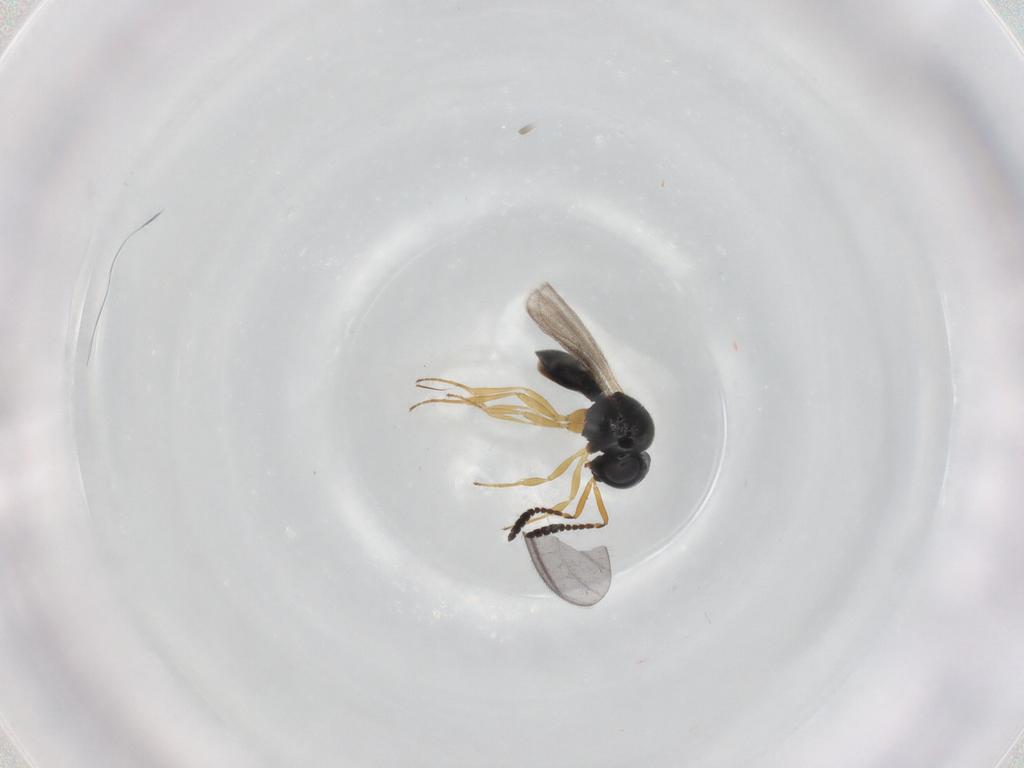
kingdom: Animalia
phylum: Arthropoda
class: Insecta
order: Hymenoptera
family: Scelionidae
